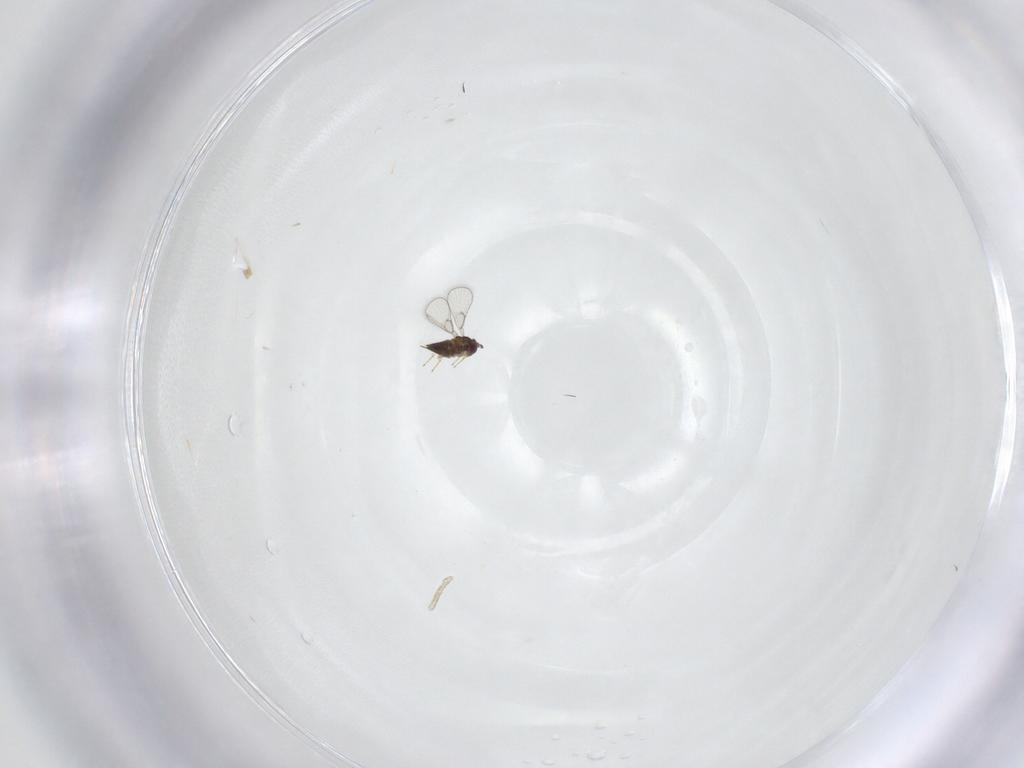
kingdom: Animalia
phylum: Arthropoda
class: Insecta
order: Hymenoptera
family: Trichogrammatidae
